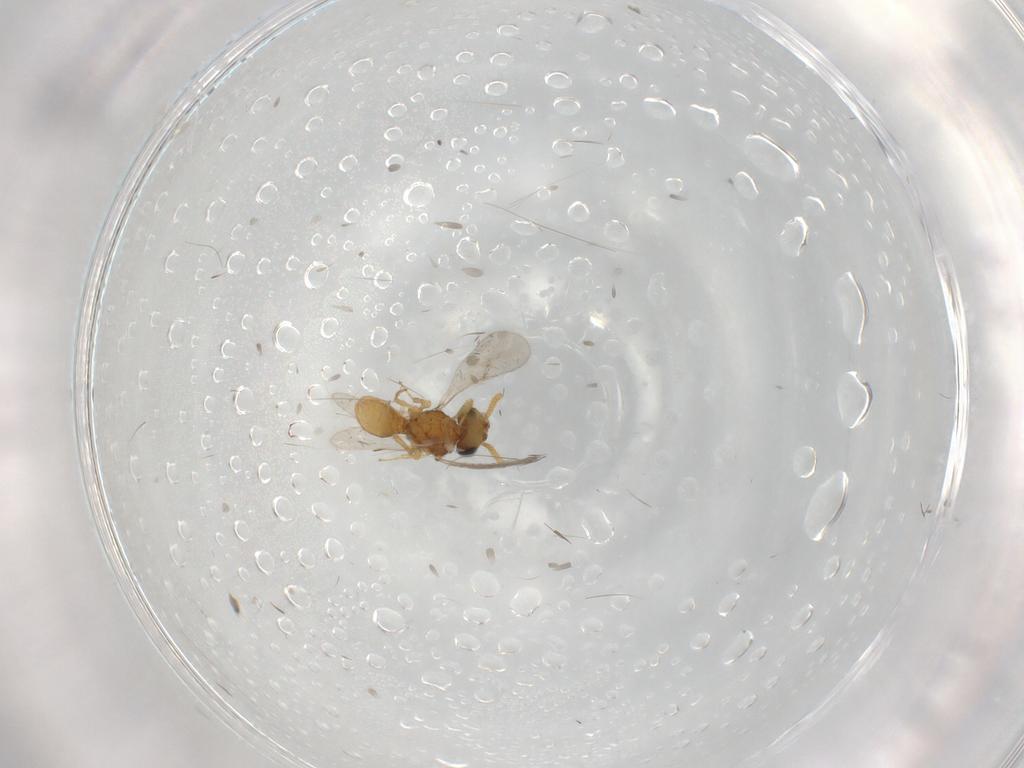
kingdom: Animalia
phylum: Arthropoda
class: Insecta
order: Hymenoptera
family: Scelionidae
